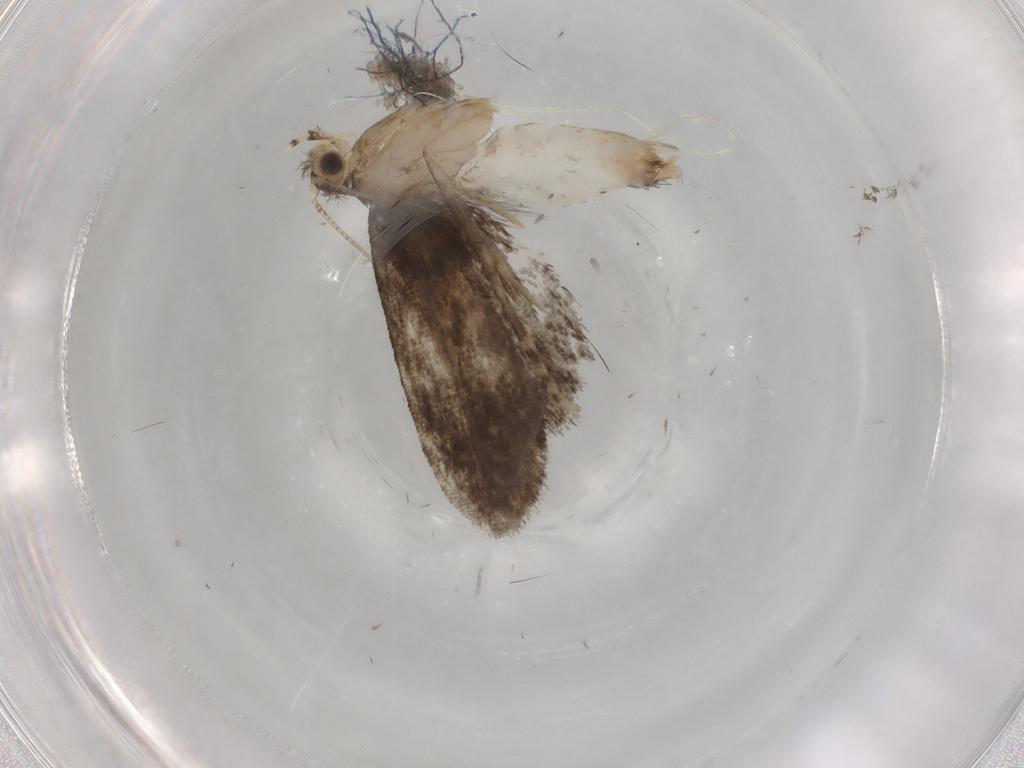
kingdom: Animalia
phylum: Arthropoda
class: Insecta
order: Lepidoptera
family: Dryadaulidae
